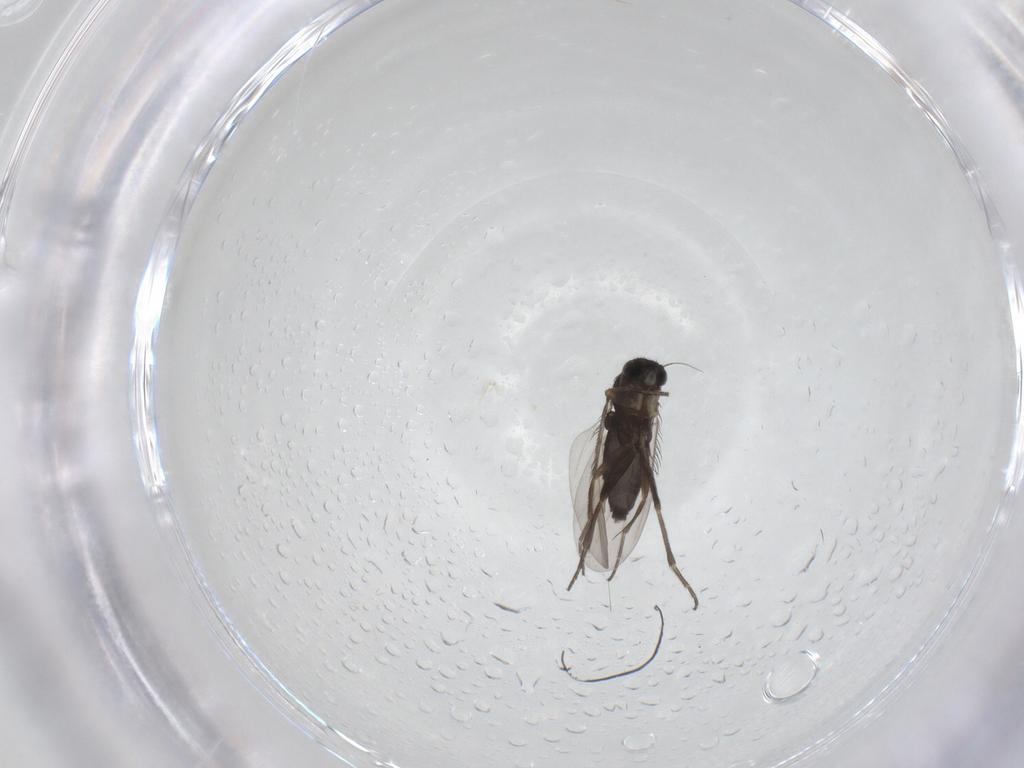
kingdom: Animalia
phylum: Arthropoda
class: Insecta
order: Diptera
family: Phoridae
